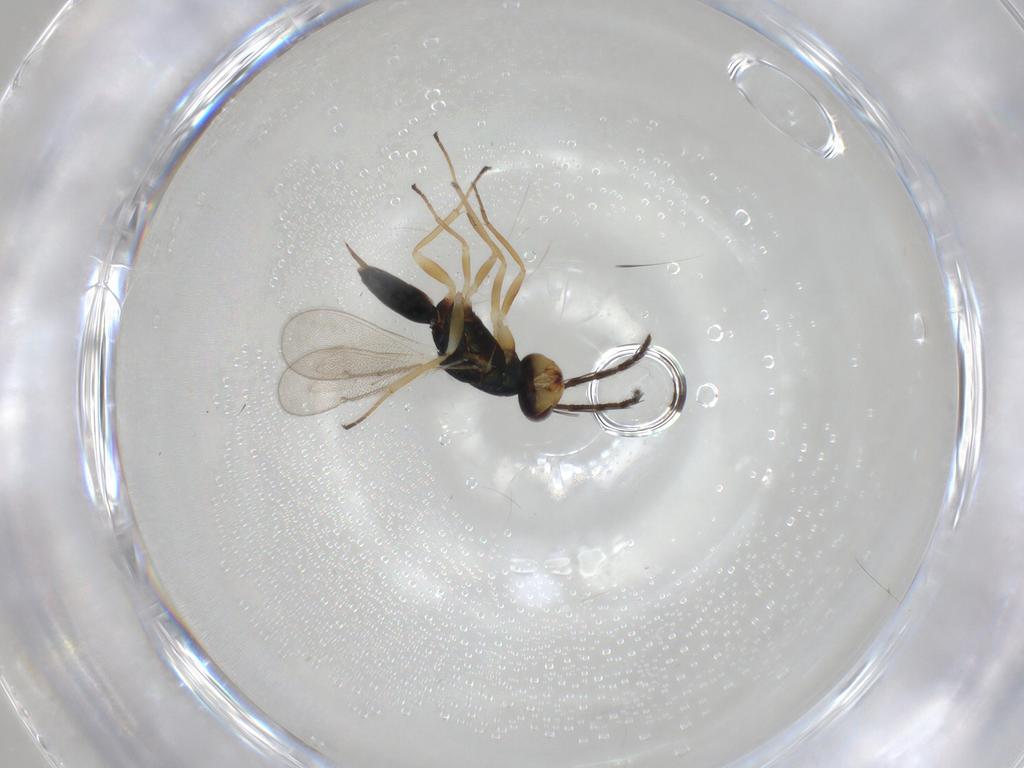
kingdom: Animalia
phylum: Arthropoda
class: Insecta
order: Hymenoptera
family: Eulophidae
